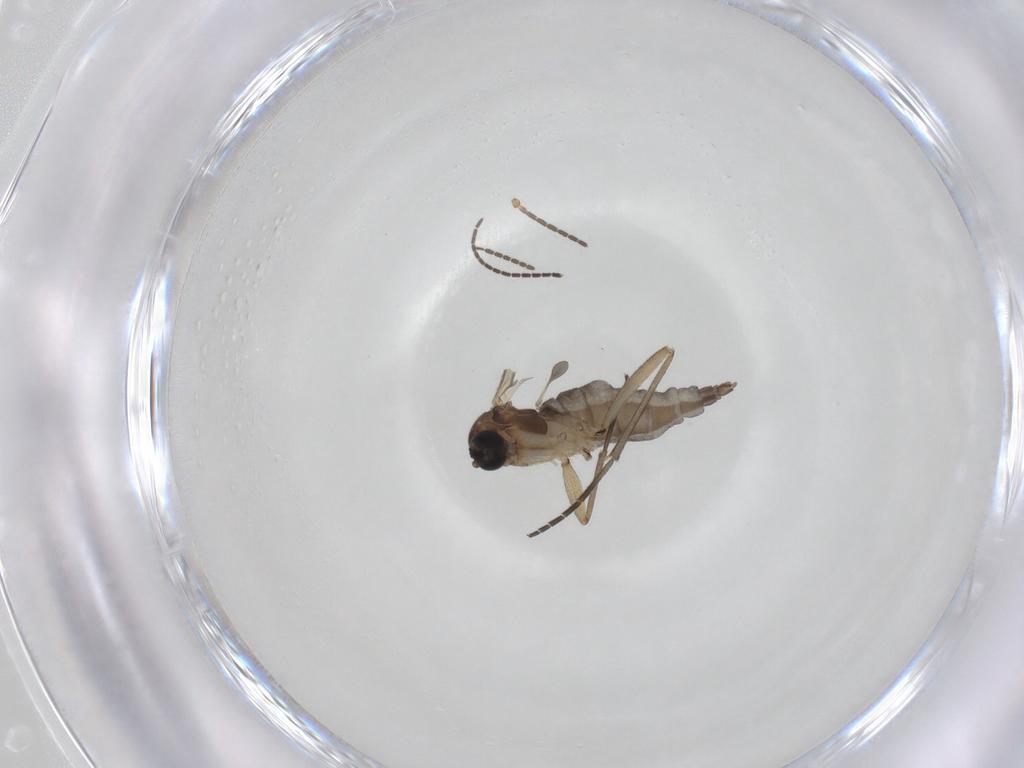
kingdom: Animalia
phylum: Arthropoda
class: Insecta
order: Diptera
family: Sciaridae
